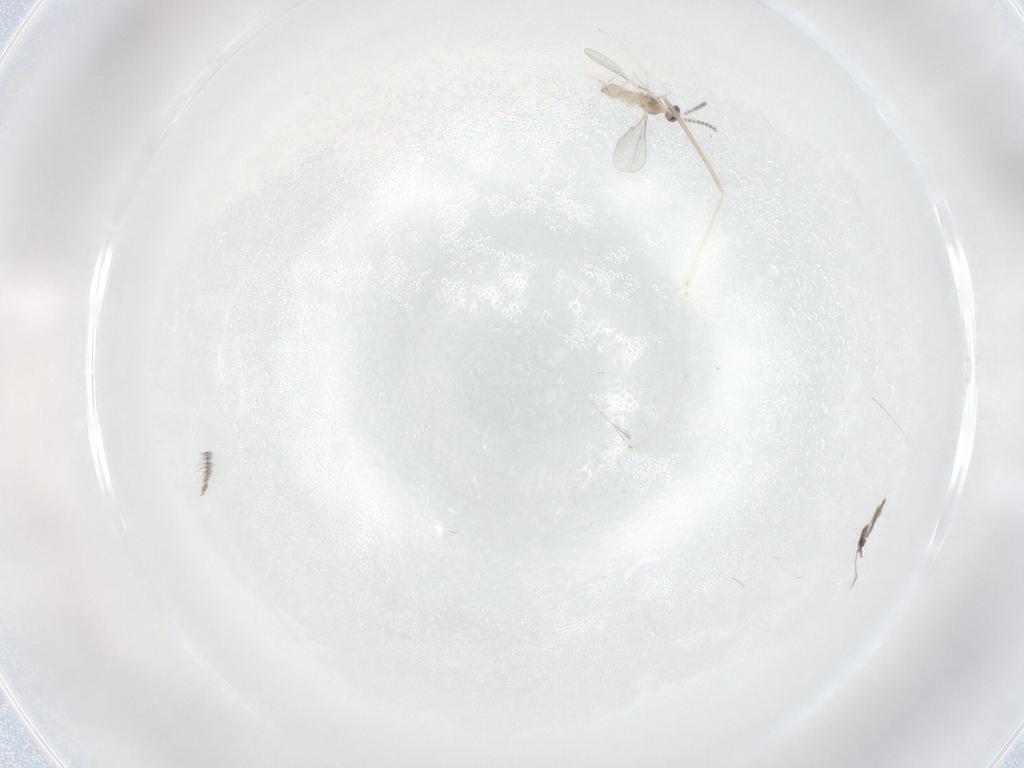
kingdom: Animalia
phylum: Arthropoda
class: Insecta
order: Diptera
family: Cecidomyiidae
